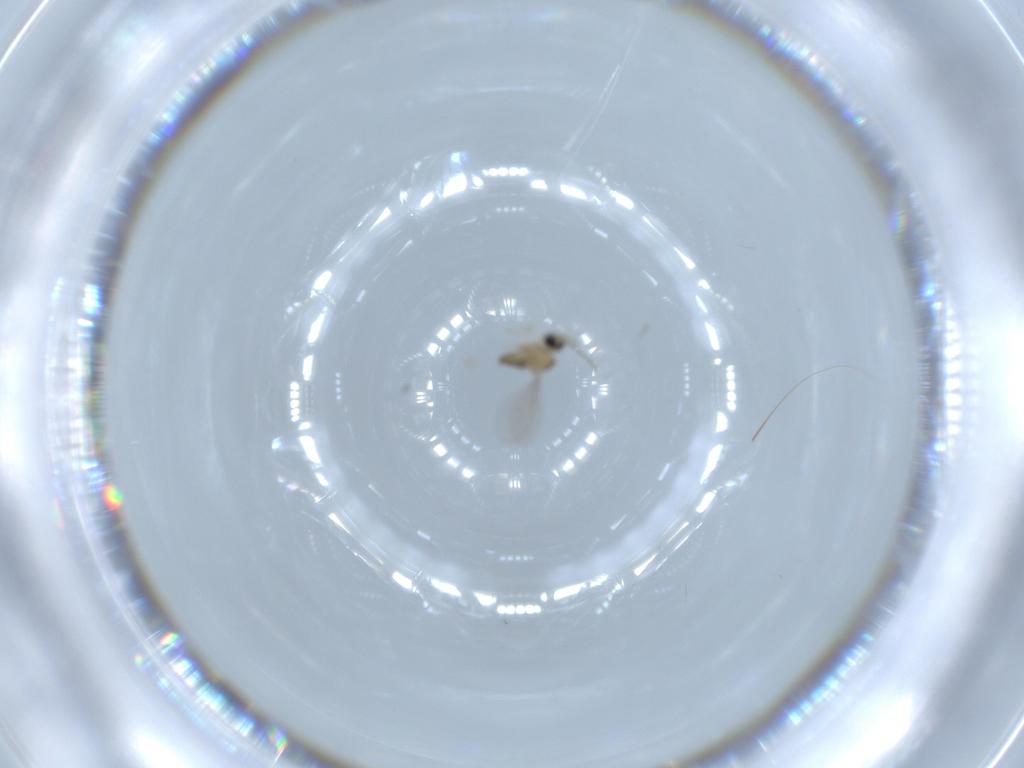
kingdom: Animalia
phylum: Arthropoda
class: Insecta
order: Diptera
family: Cecidomyiidae
